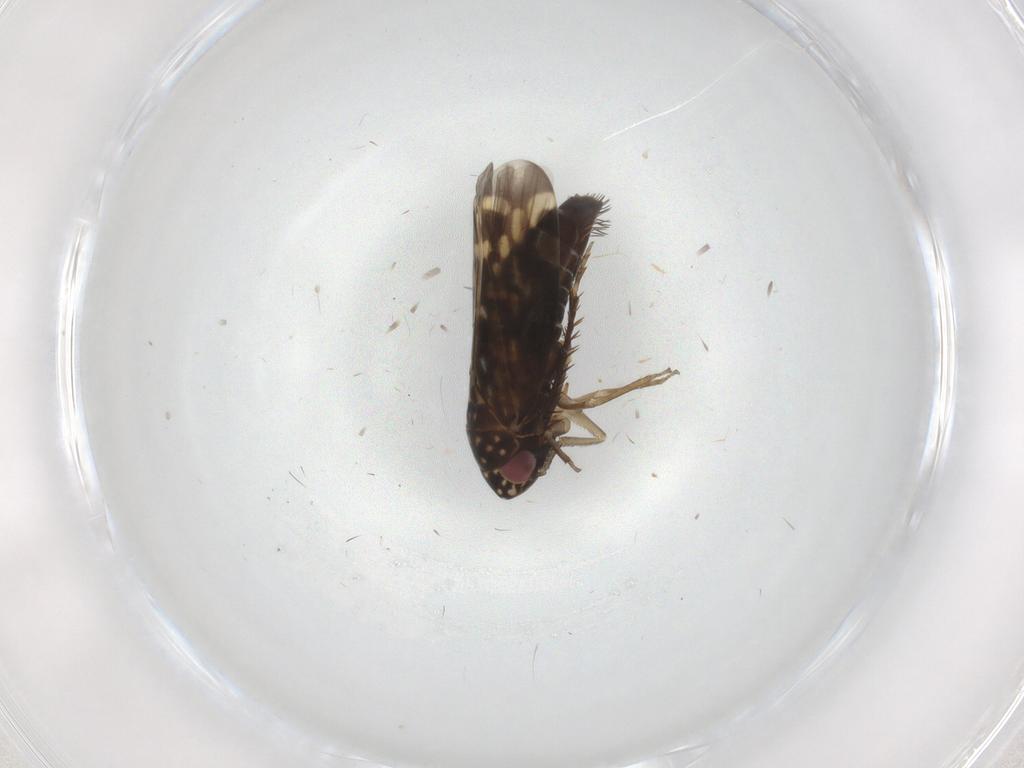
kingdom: Animalia
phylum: Arthropoda
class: Insecta
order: Hemiptera
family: Cicadellidae
